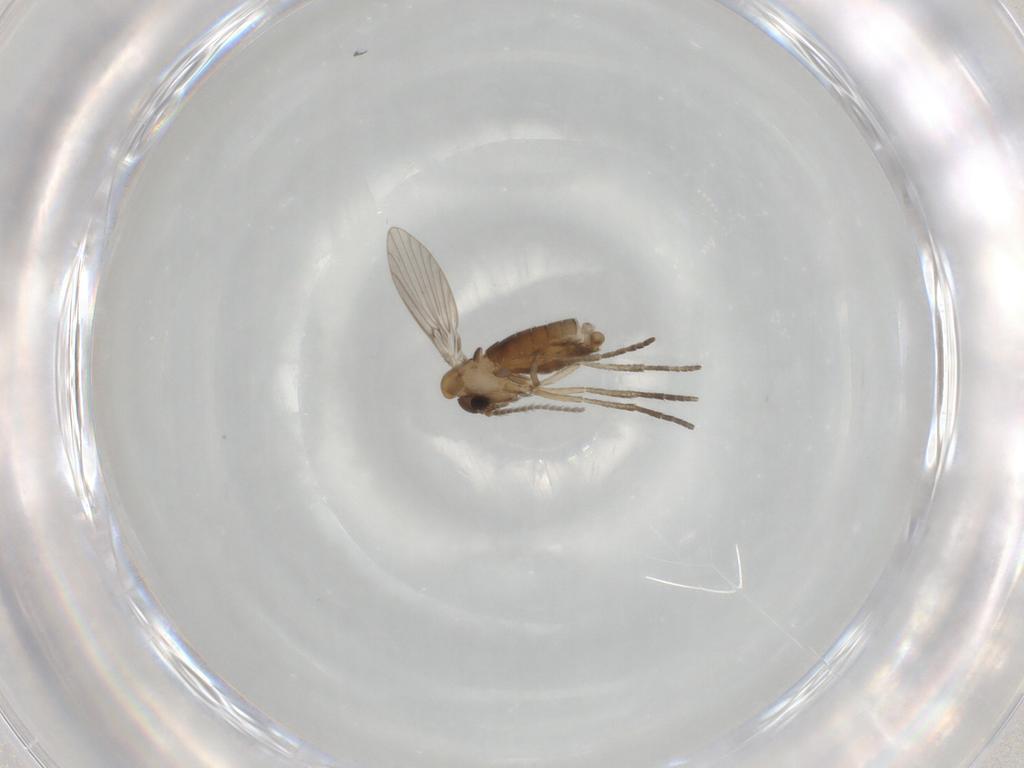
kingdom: Animalia
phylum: Arthropoda
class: Insecta
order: Diptera
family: Psychodidae
